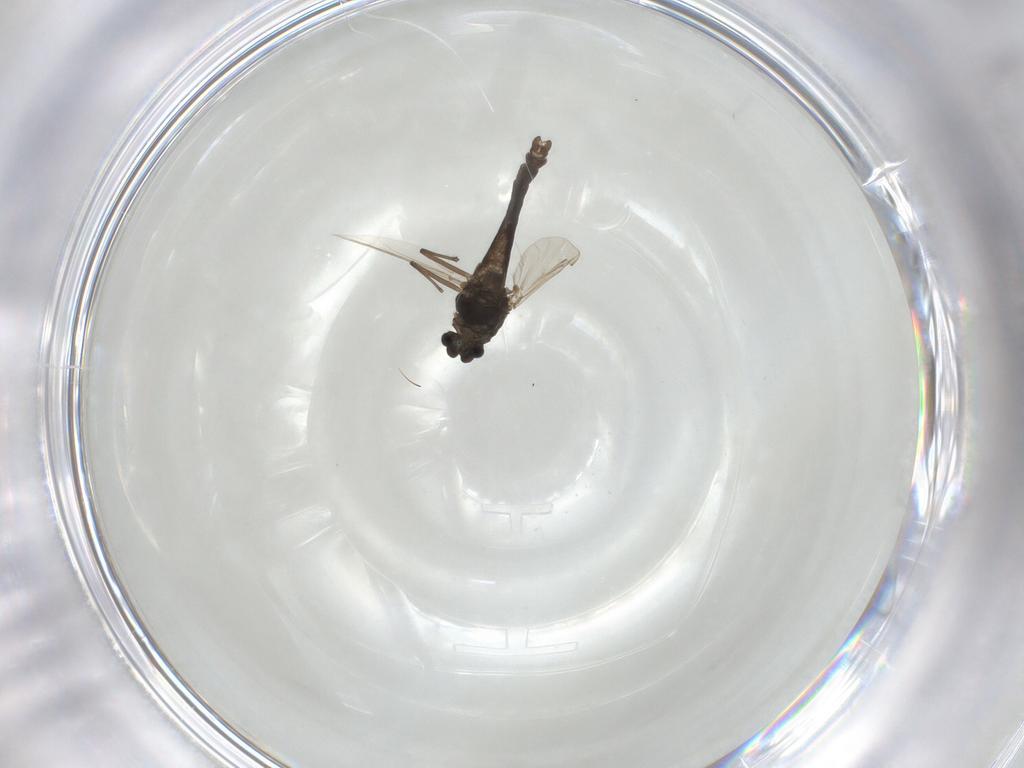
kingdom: Animalia
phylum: Arthropoda
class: Insecta
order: Diptera
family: Chironomidae
